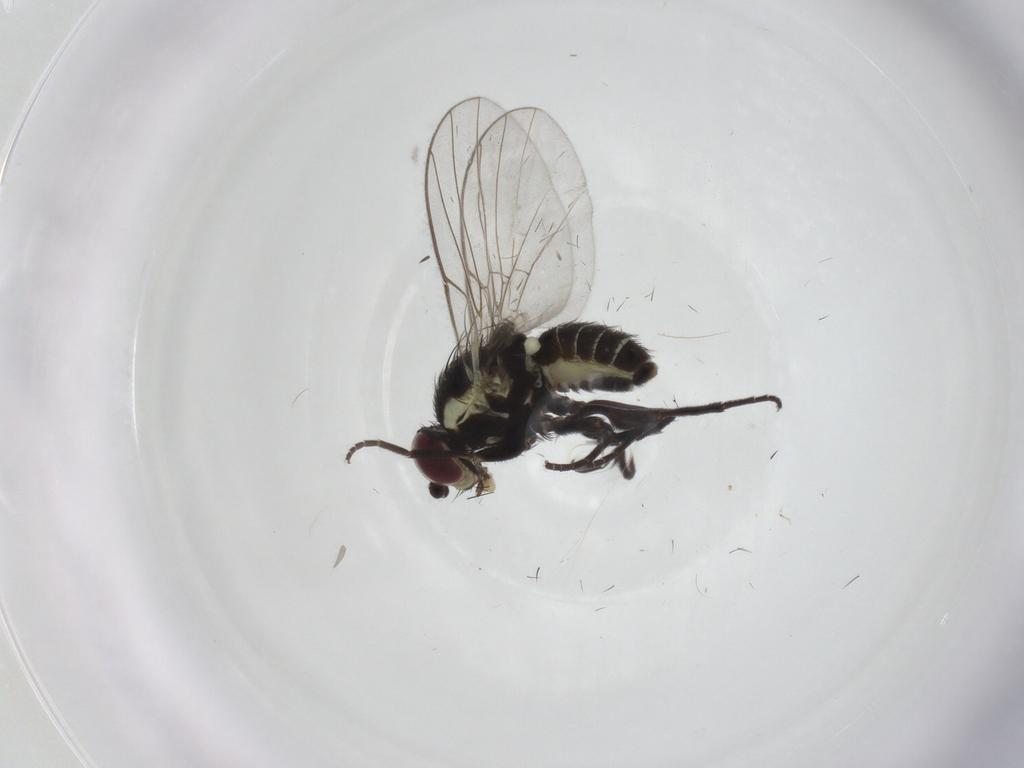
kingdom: Animalia
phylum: Arthropoda
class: Insecta
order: Diptera
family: Agromyzidae
